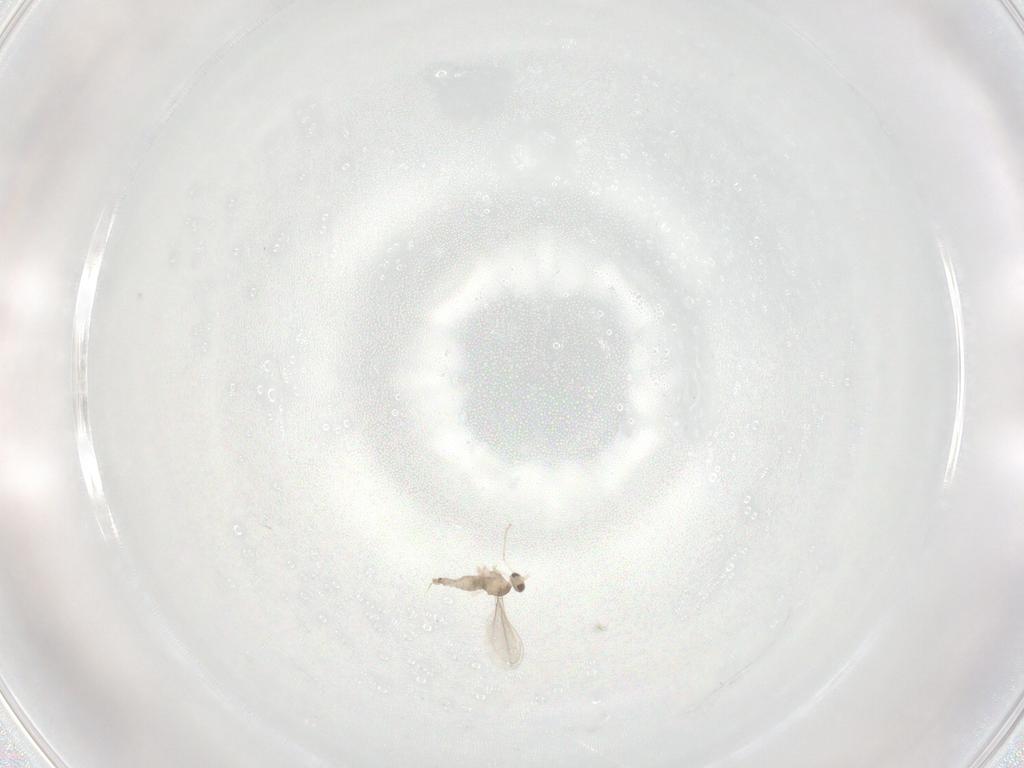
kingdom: Animalia
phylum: Arthropoda
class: Insecta
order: Diptera
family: Cecidomyiidae
